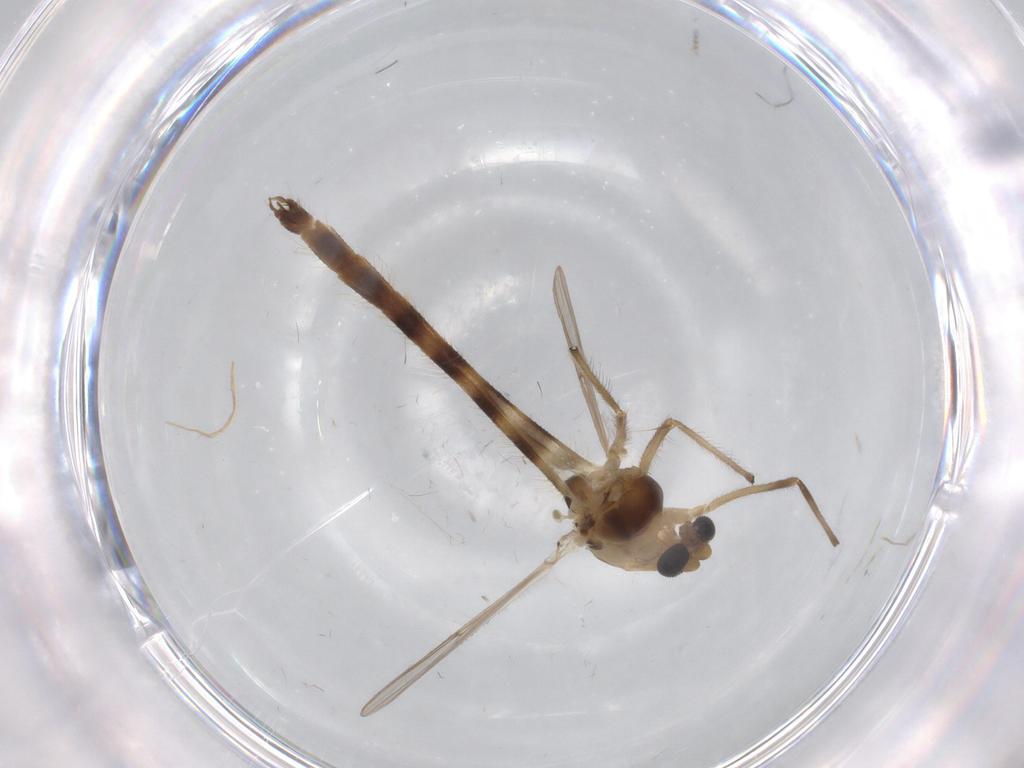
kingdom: Animalia
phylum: Arthropoda
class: Insecta
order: Diptera
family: Chironomidae
